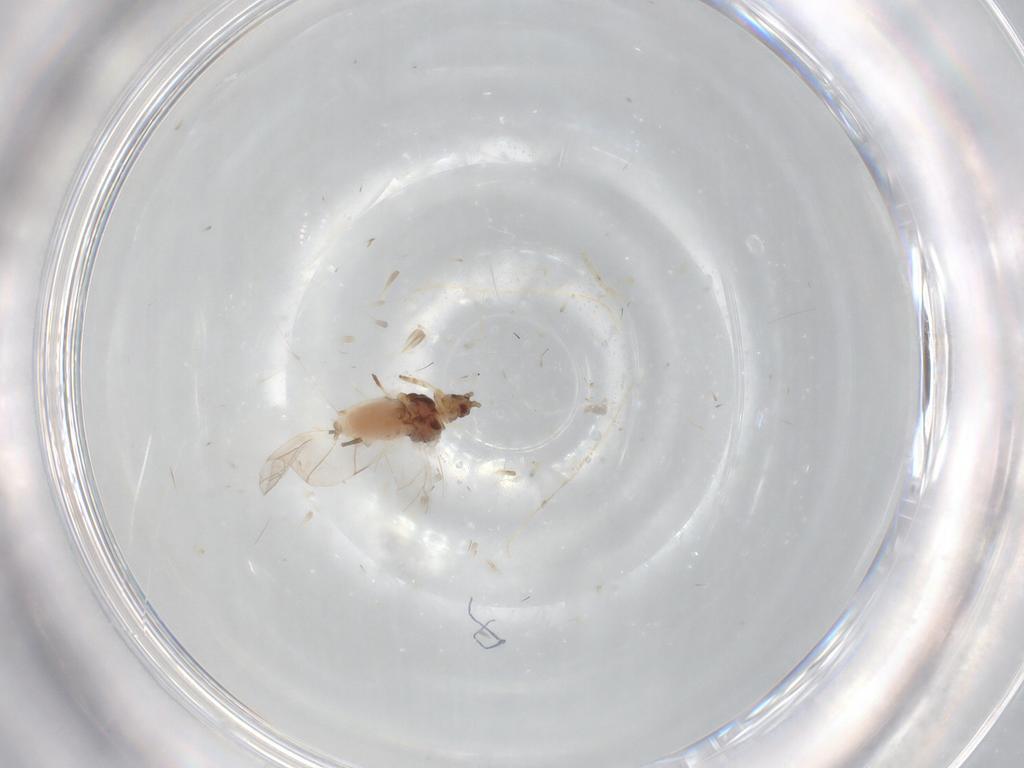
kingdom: Animalia
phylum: Arthropoda
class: Insecta
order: Hemiptera
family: Aphididae
